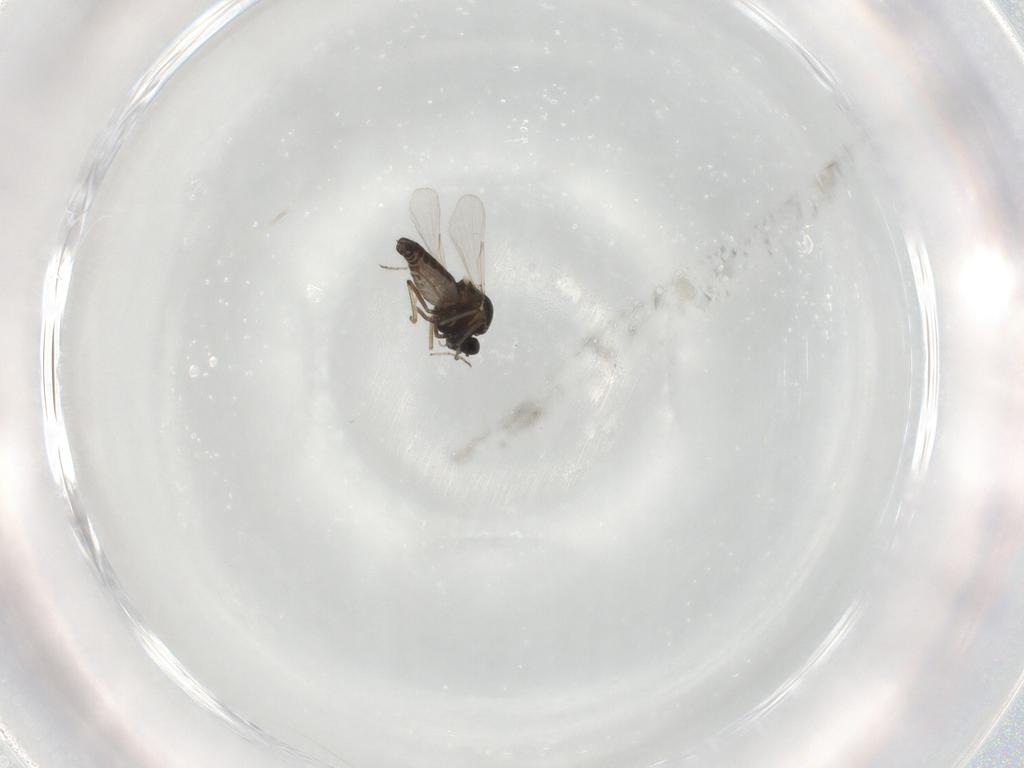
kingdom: Animalia
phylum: Arthropoda
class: Insecta
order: Diptera
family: Ceratopogonidae
